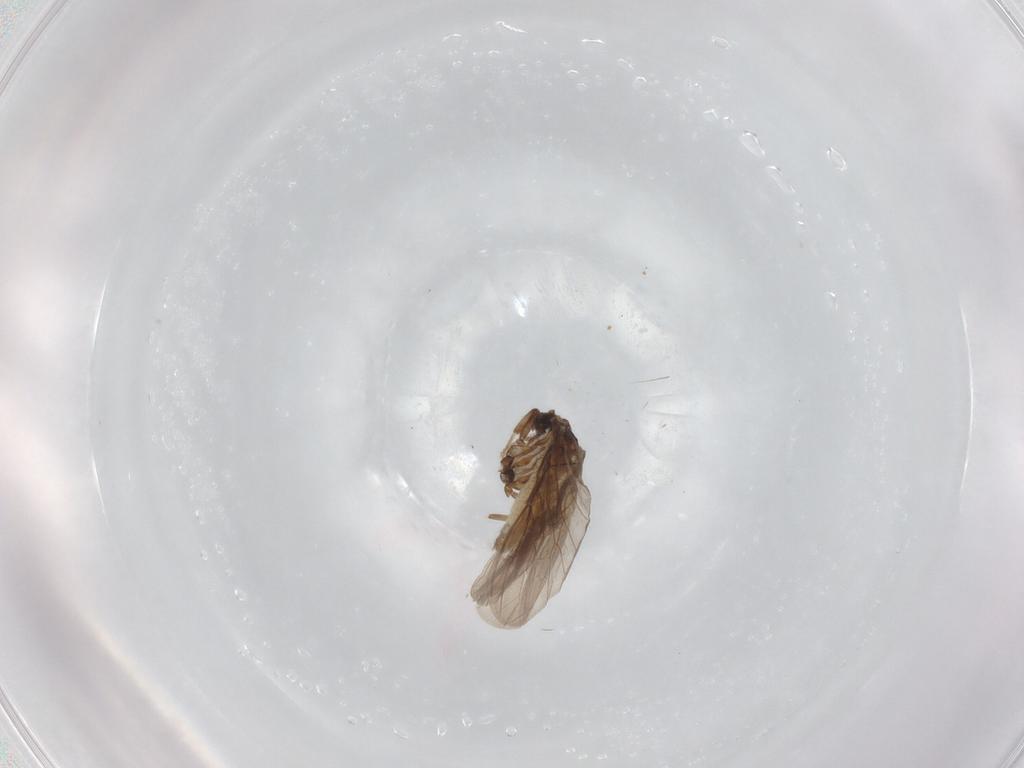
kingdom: Animalia
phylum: Arthropoda
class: Insecta
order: Neuroptera
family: Coniopterygidae
